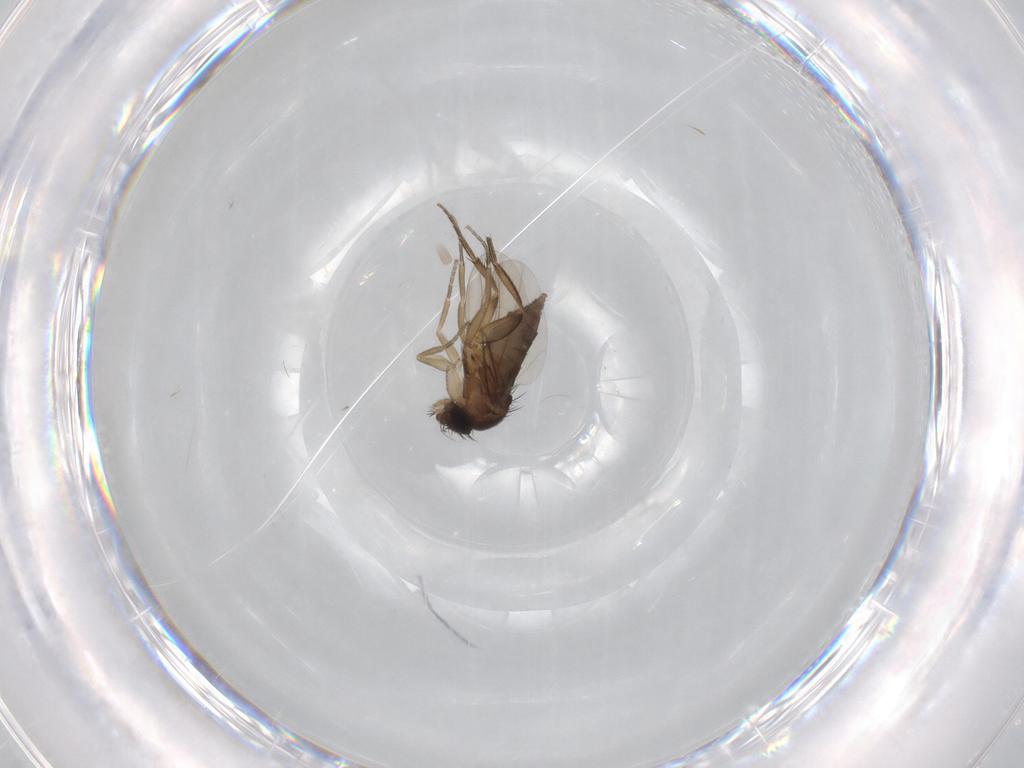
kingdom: Animalia
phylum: Arthropoda
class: Insecta
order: Diptera
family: Phoridae
